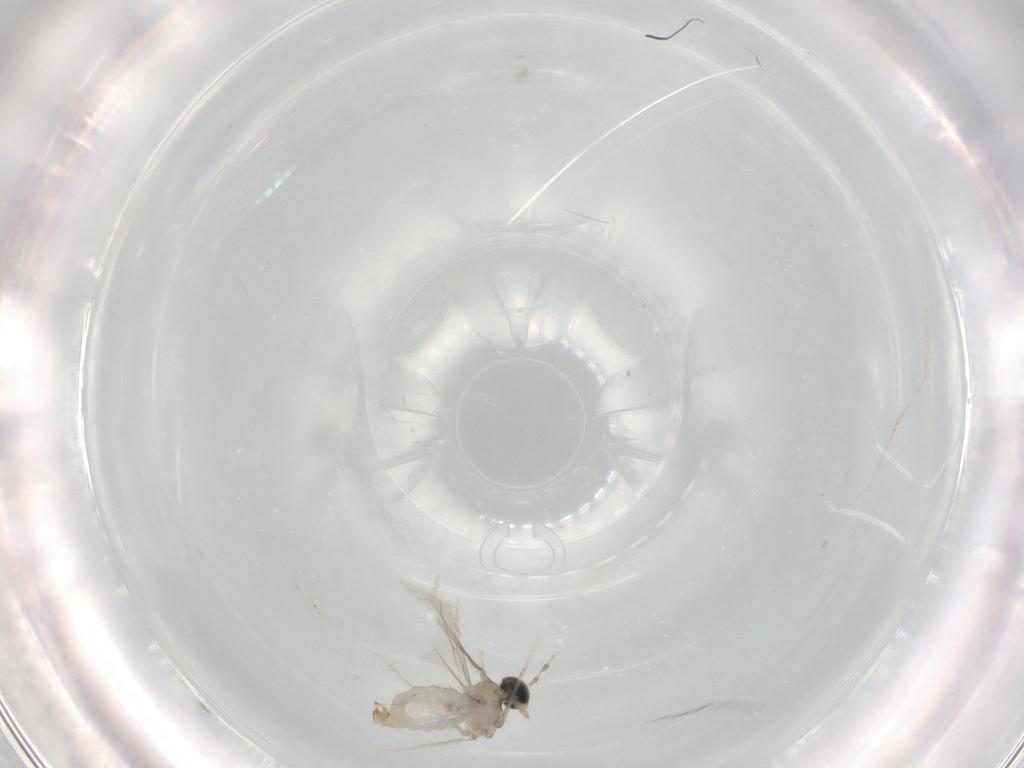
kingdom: Animalia
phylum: Arthropoda
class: Insecta
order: Diptera
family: Cecidomyiidae
